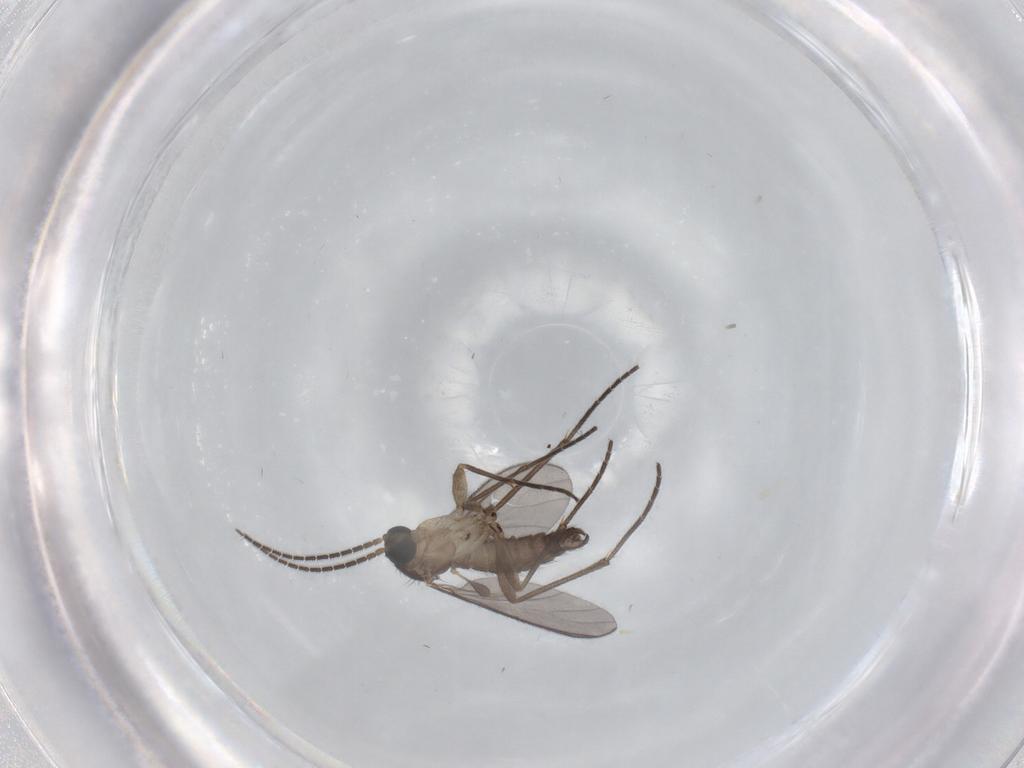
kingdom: Animalia
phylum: Arthropoda
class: Insecta
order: Diptera
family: Sciaridae
